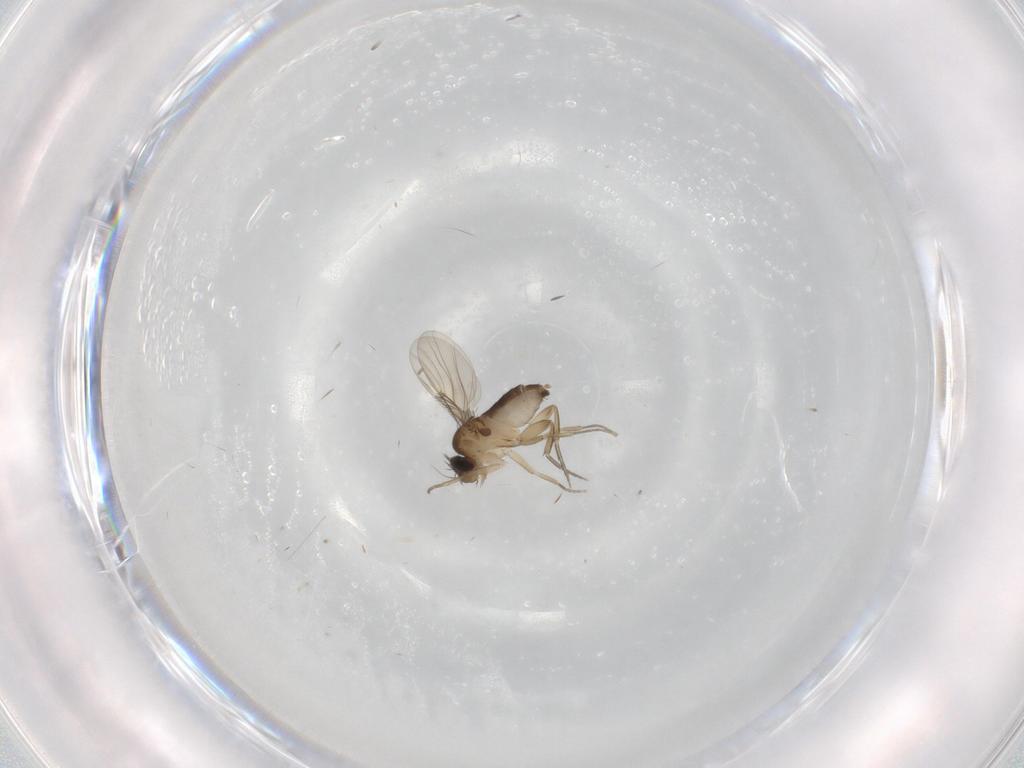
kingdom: Animalia
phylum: Arthropoda
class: Insecta
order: Diptera
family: Phoridae
